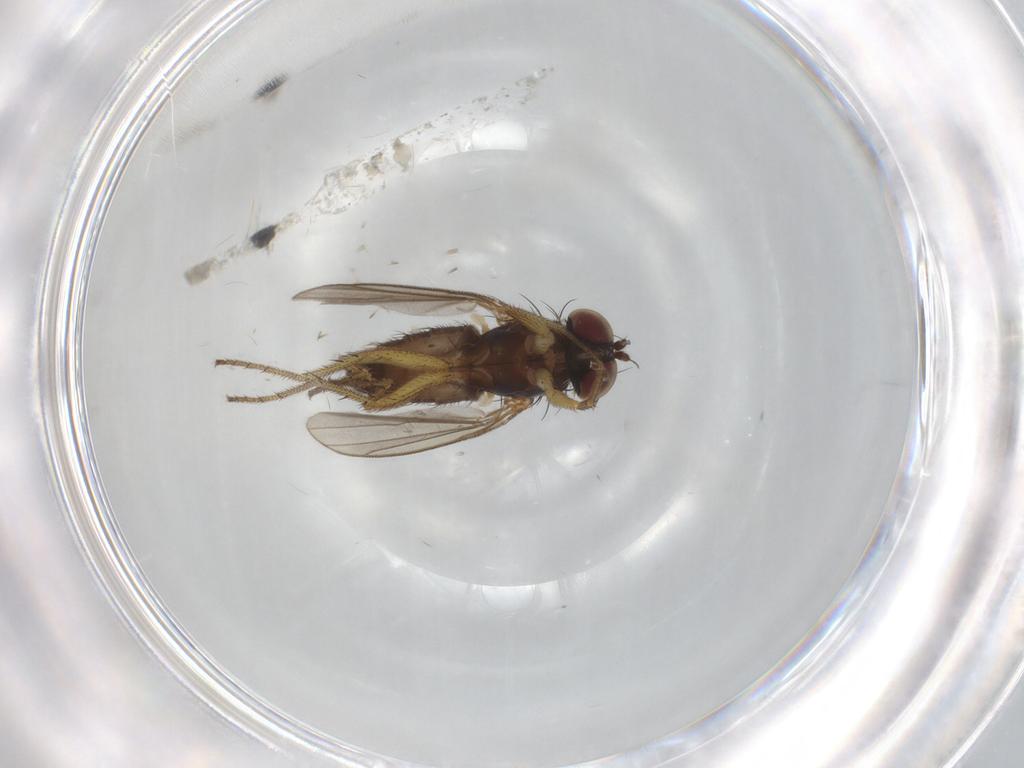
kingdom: Animalia
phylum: Arthropoda
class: Insecta
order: Diptera
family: Dolichopodidae
